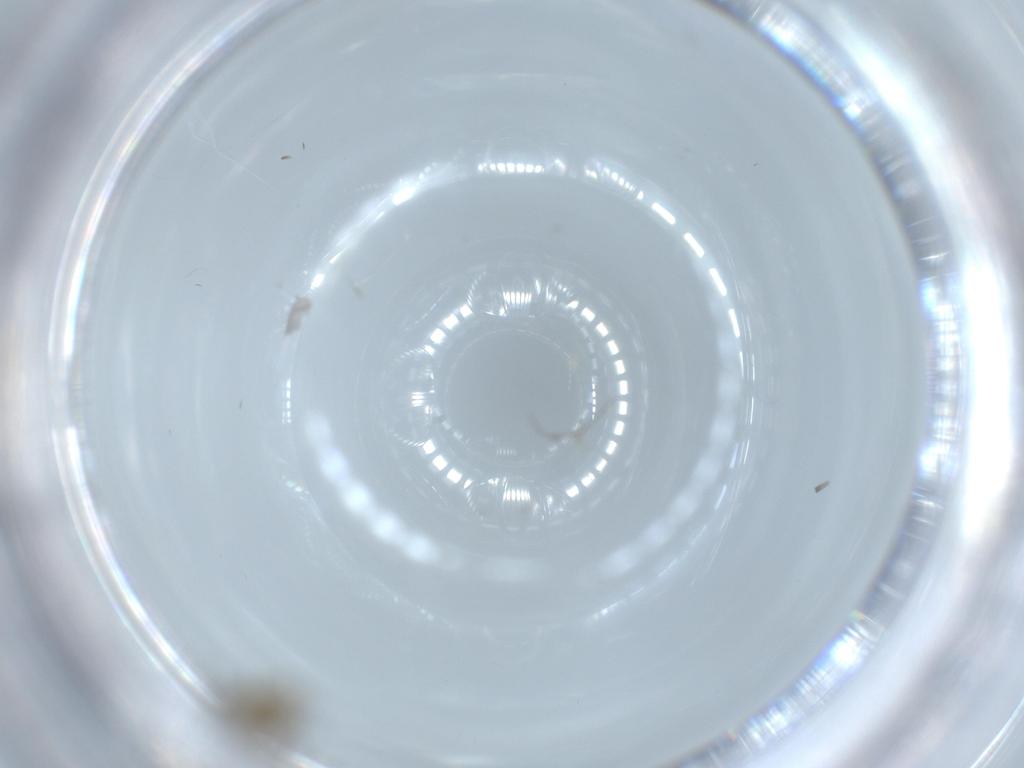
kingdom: Animalia
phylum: Arthropoda
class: Insecta
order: Diptera
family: Chironomidae
